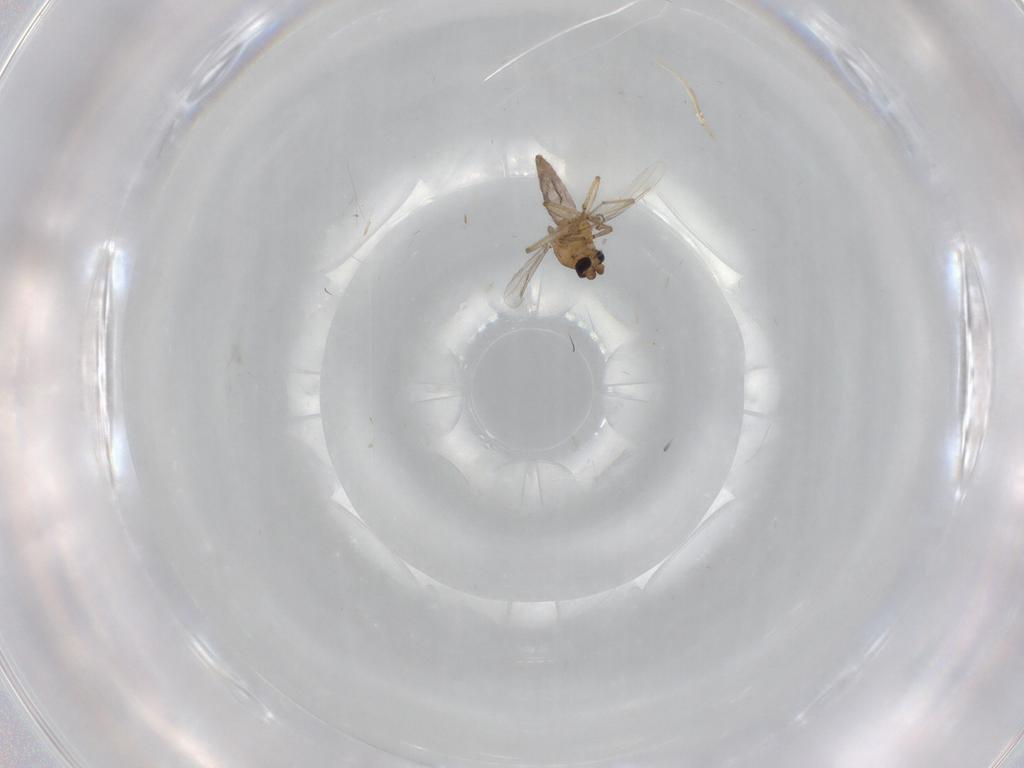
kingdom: Animalia
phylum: Arthropoda
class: Insecta
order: Diptera
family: Ceratopogonidae
